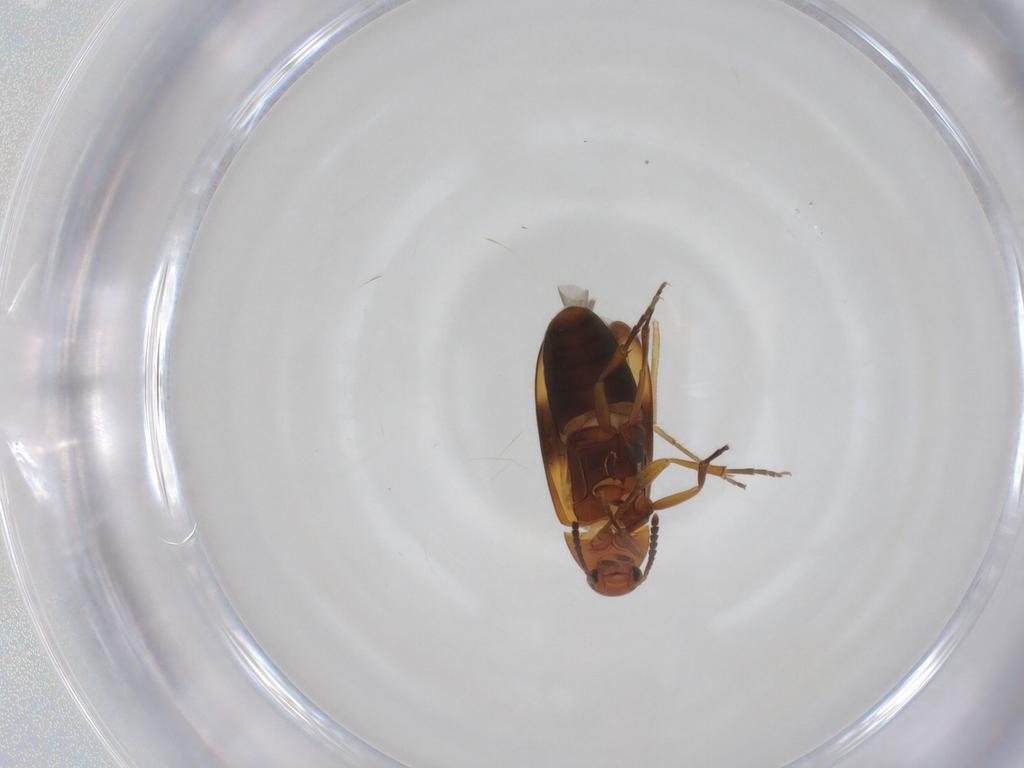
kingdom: Animalia
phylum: Arthropoda
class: Insecta
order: Coleoptera
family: Scraptiidae
